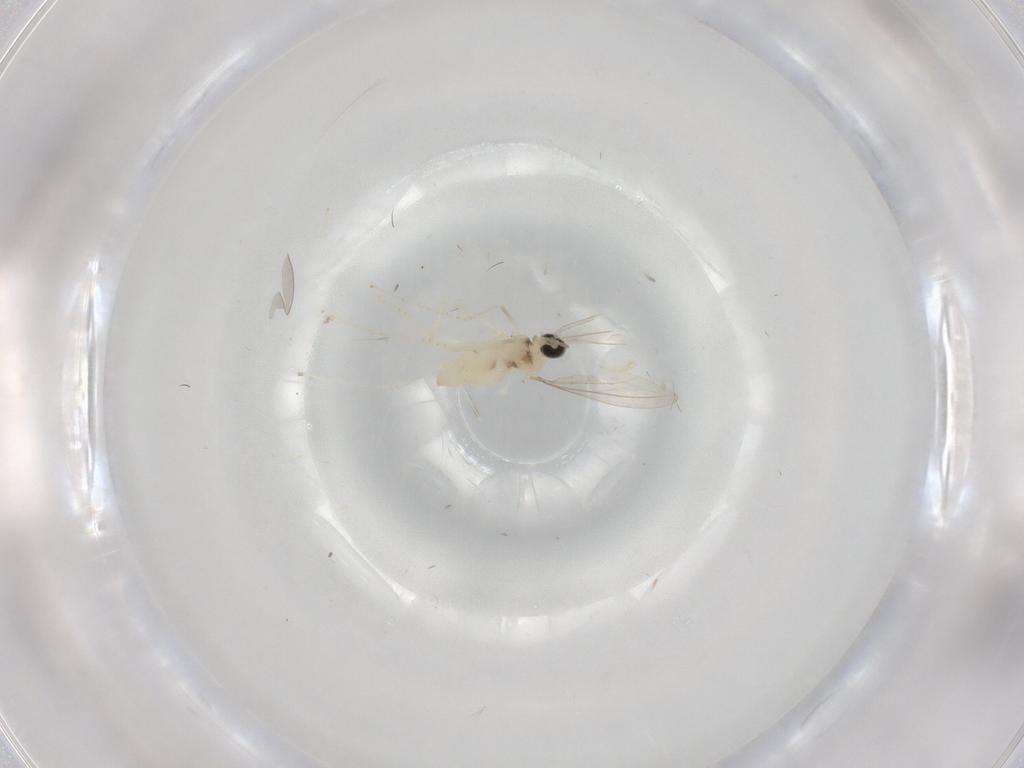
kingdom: Animalia
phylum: Arthropoda
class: Insecta
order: Diptera
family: Cecidomyiidae
